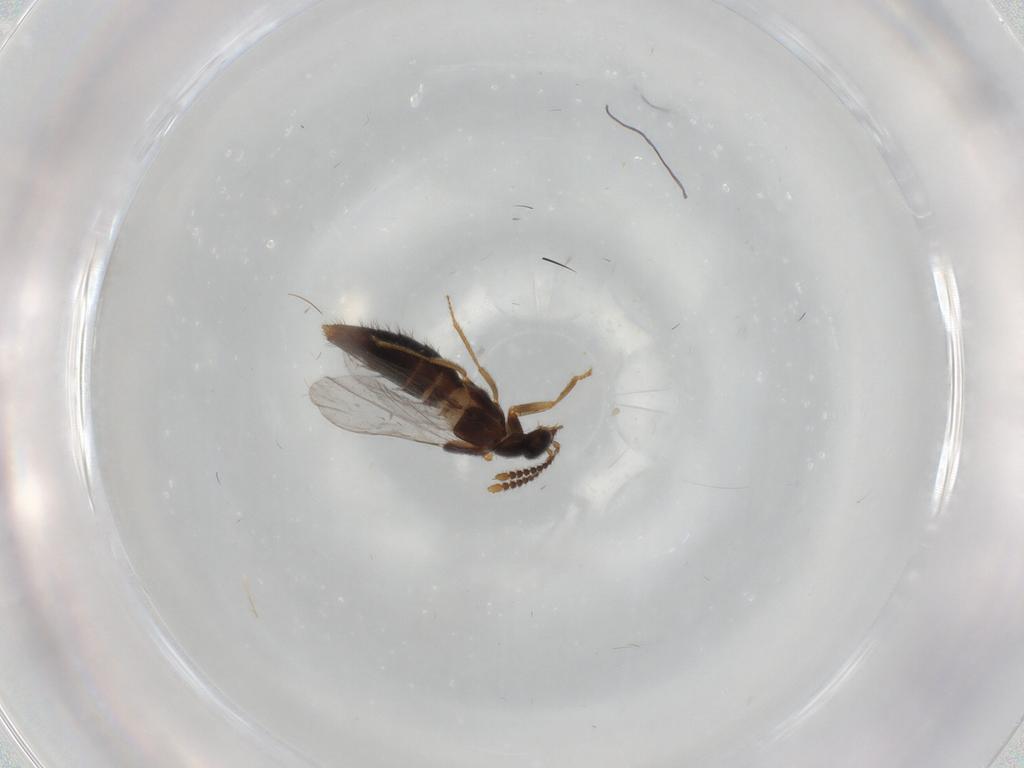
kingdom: Animalia
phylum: Arthropoda
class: Insecta
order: Coleoptera
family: Staphylinidae
